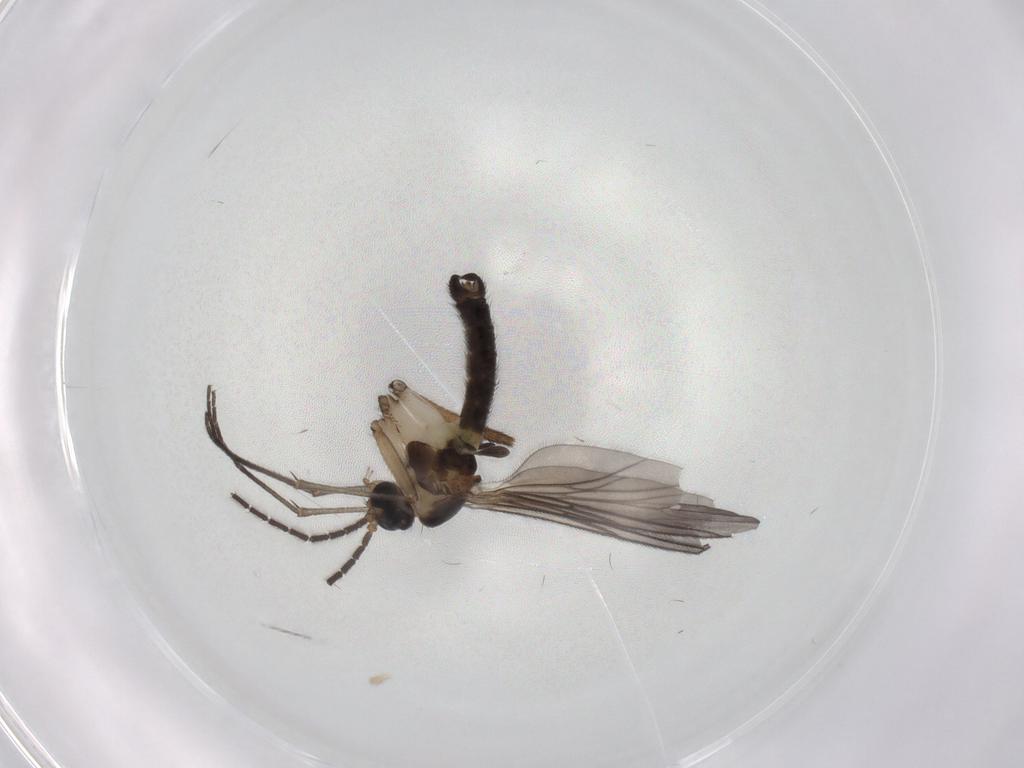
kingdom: Animalia
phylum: Arthropoda
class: Insecta
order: Diptera
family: Sciaridae
